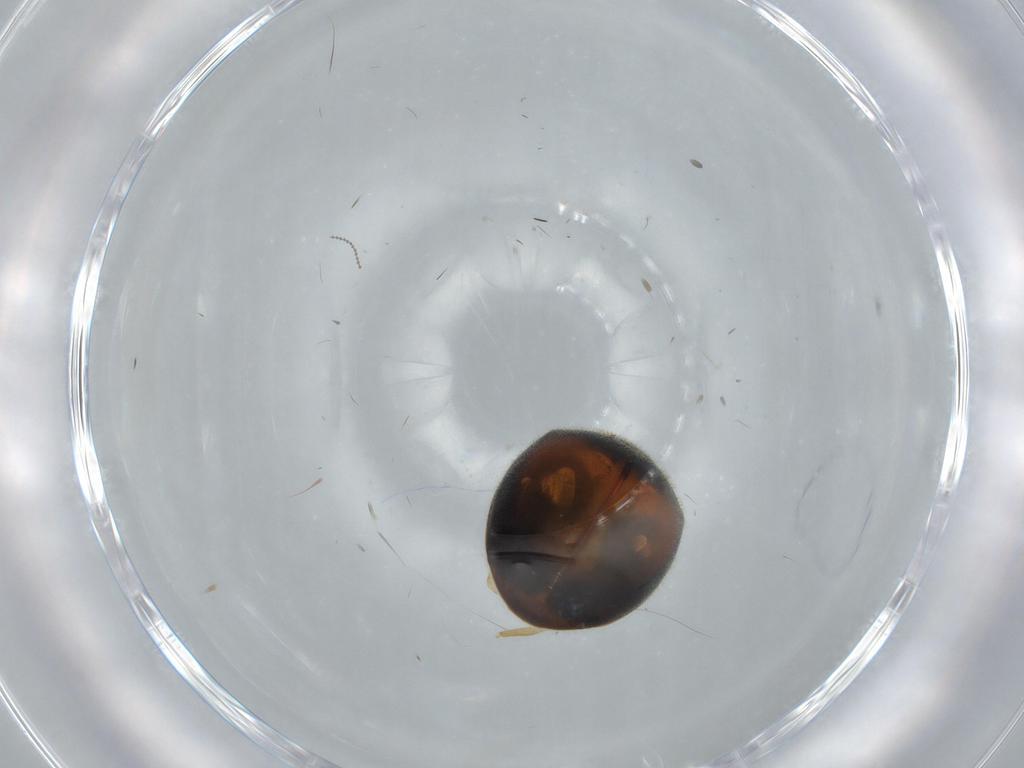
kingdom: Animalia
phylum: Arthropoda
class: Insecta
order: Coleoptera
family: Coccinellidae
